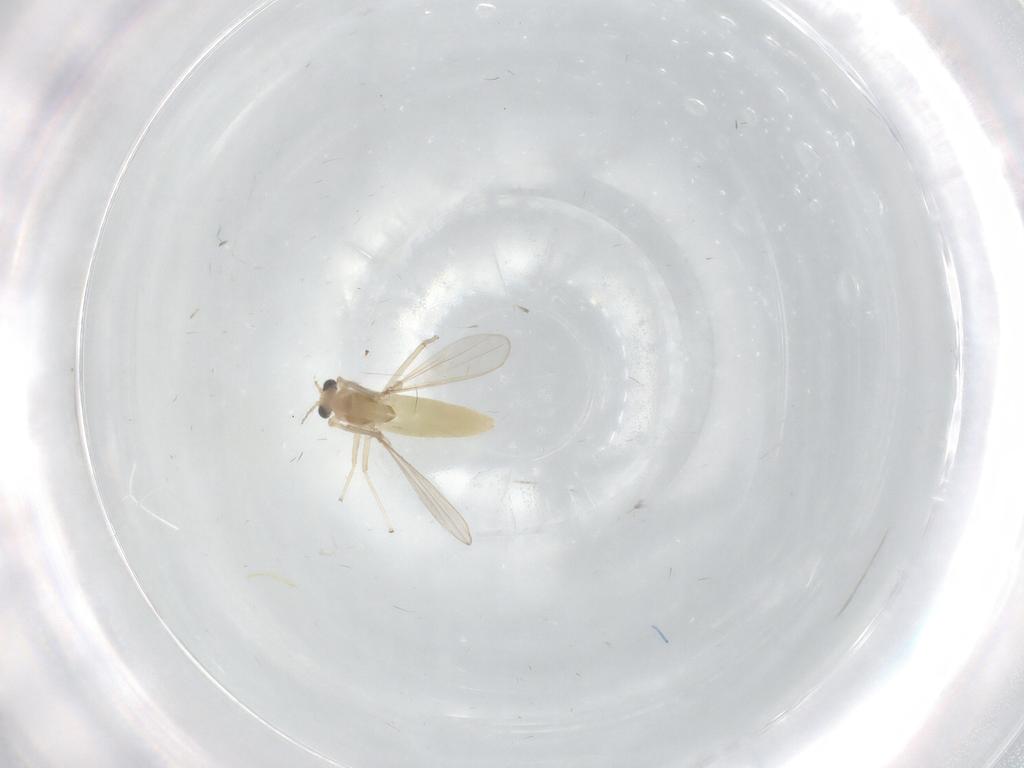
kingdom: Animalia
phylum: Arthropoda
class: Insecta
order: Diptera
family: Chironomidae
